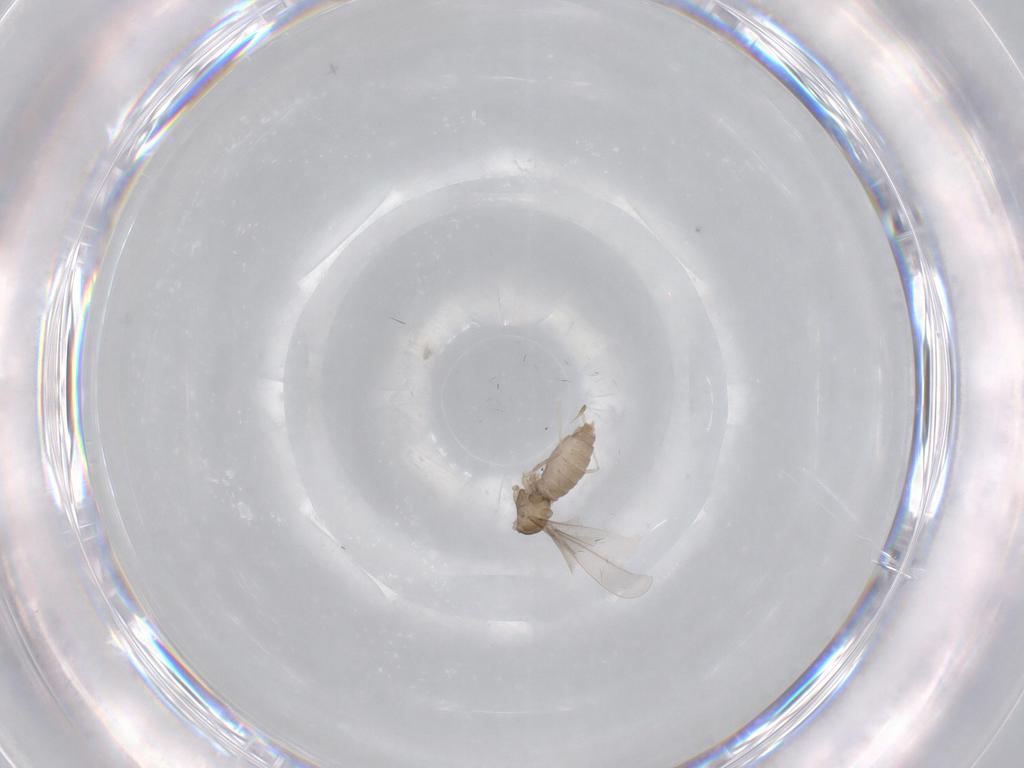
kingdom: Animalia
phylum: Arthropoda
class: Insecta
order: Diptera
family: Cecidomyiidae
